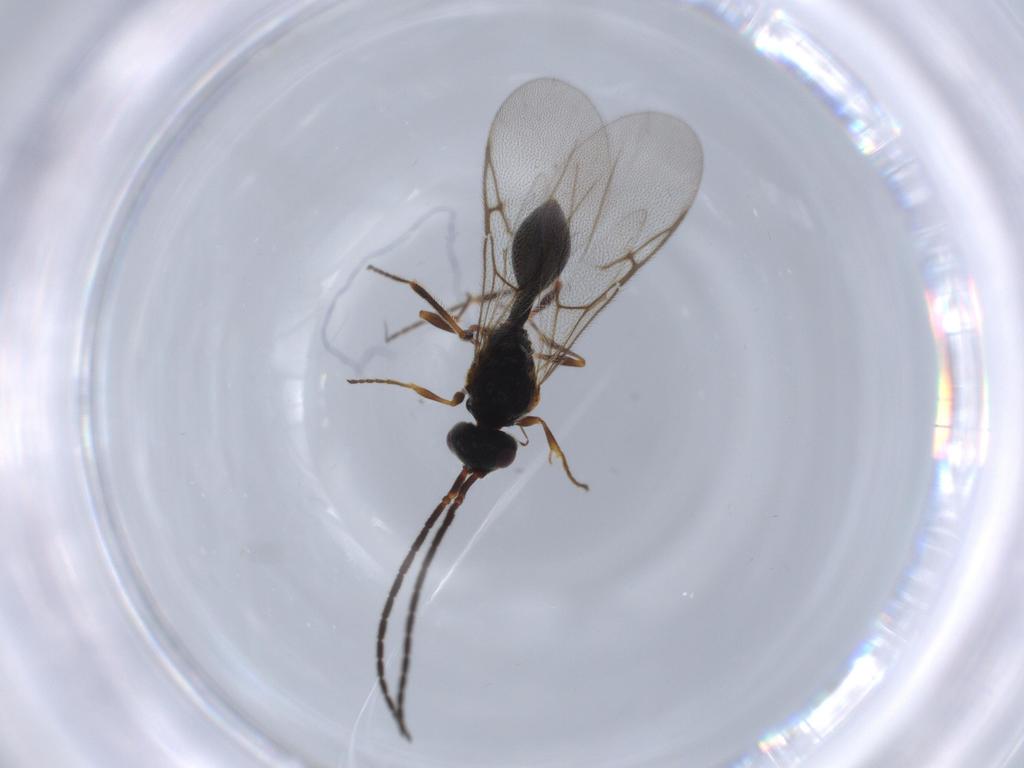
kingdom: Animalia
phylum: Arthropoda
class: Insecta
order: Hymenoptera
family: Diapriidae
